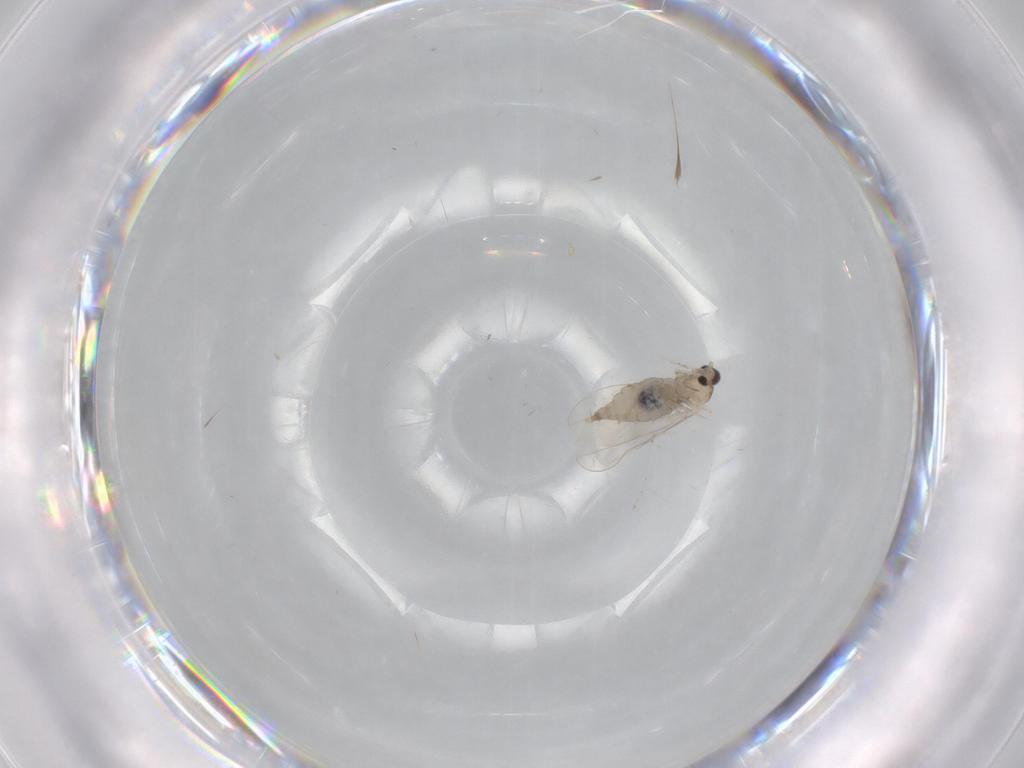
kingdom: Animalia
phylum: Arthropoda
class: Insecta
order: Diptera
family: Cecidomyiidae
